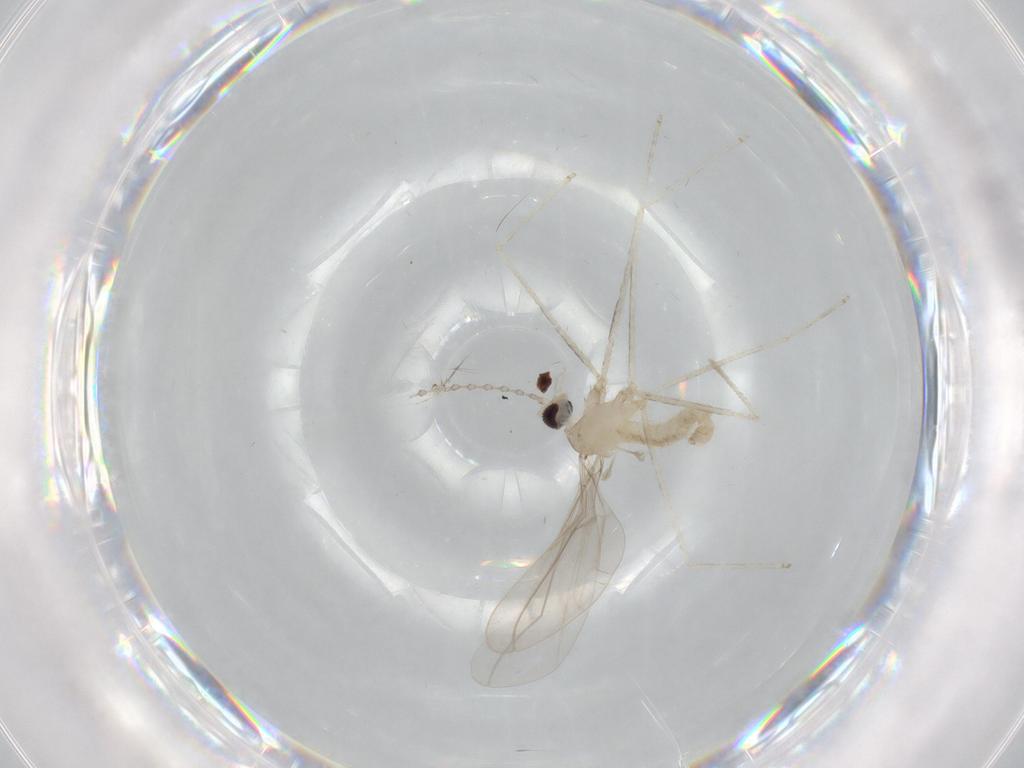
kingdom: Animalia
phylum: Arthropoda
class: Insecta
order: Diptera
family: Cecidomyiidae
